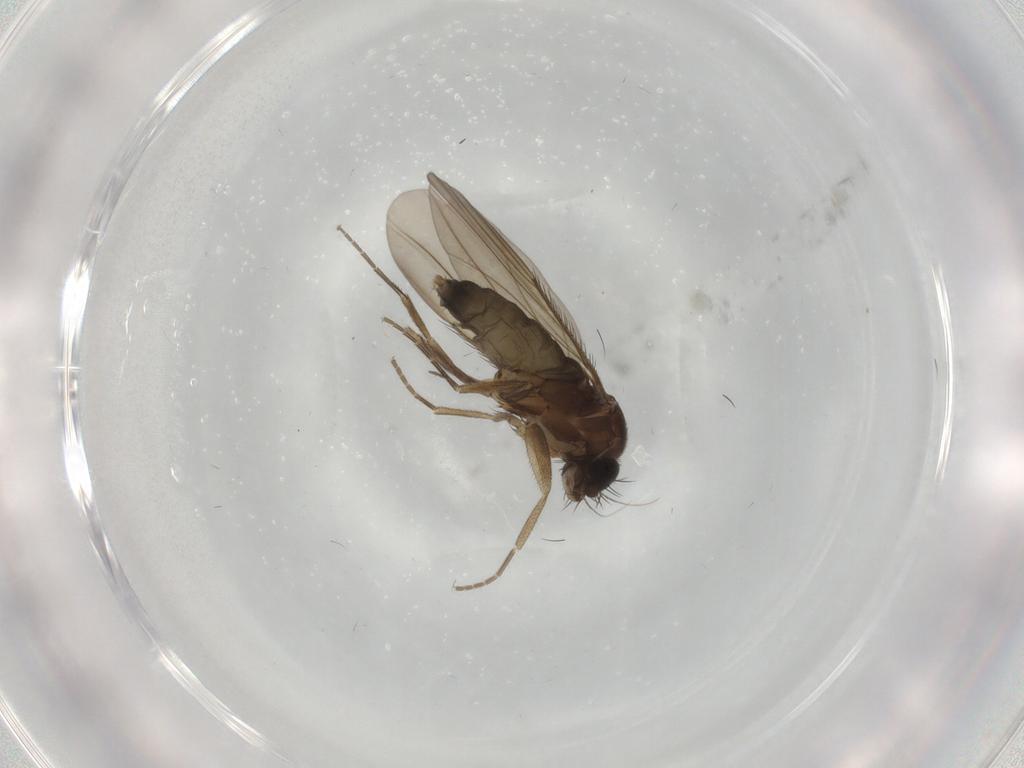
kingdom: Animalia
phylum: Arthropoda
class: Insecta
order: Diptera
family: Phoridae
